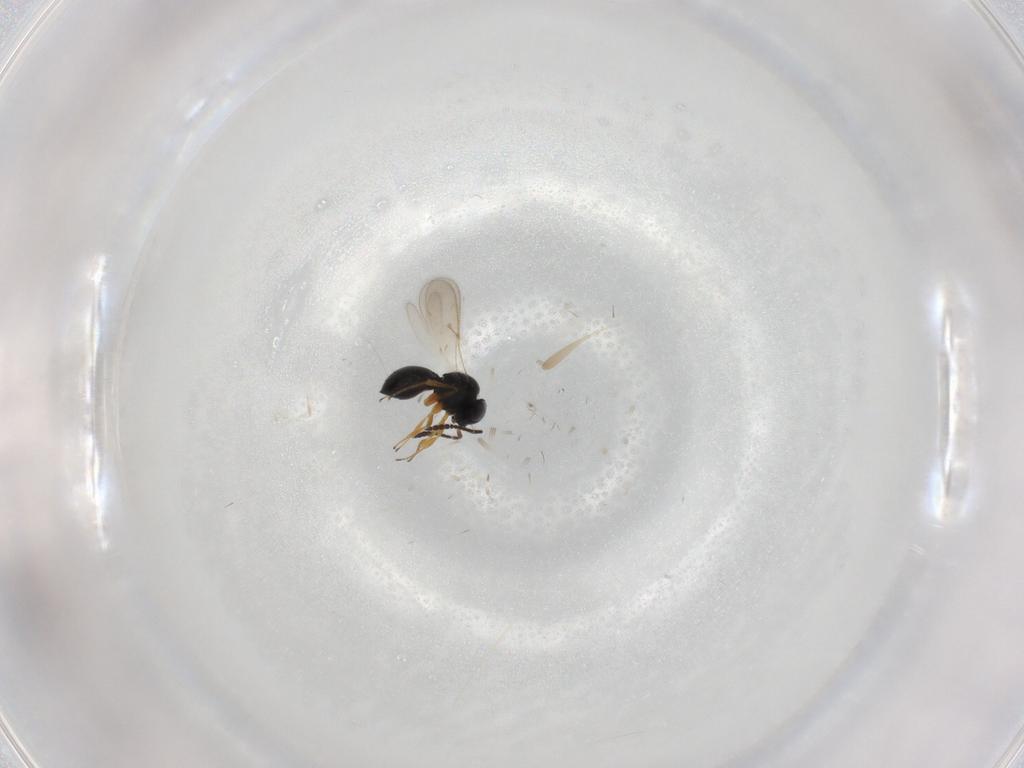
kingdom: Animalia
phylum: Arthropoda
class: Insecta
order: Hymenoptera
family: Scelionidae
